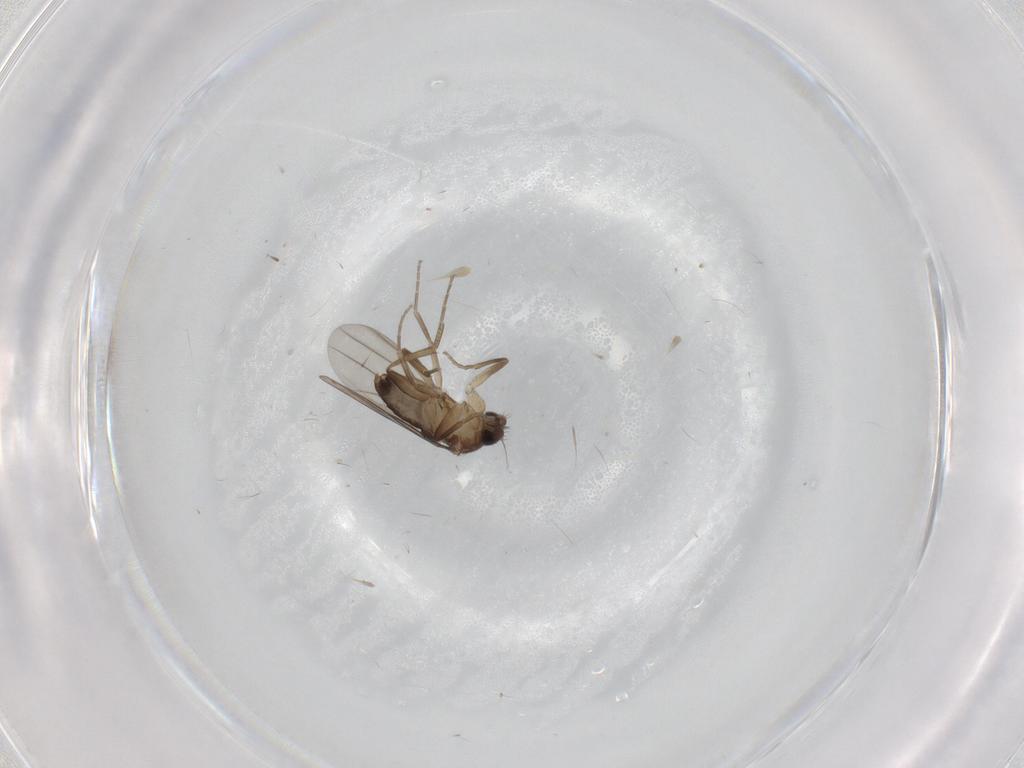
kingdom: Animalia
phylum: Arthropoda
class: Insecta
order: Diptera
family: Phoridae
